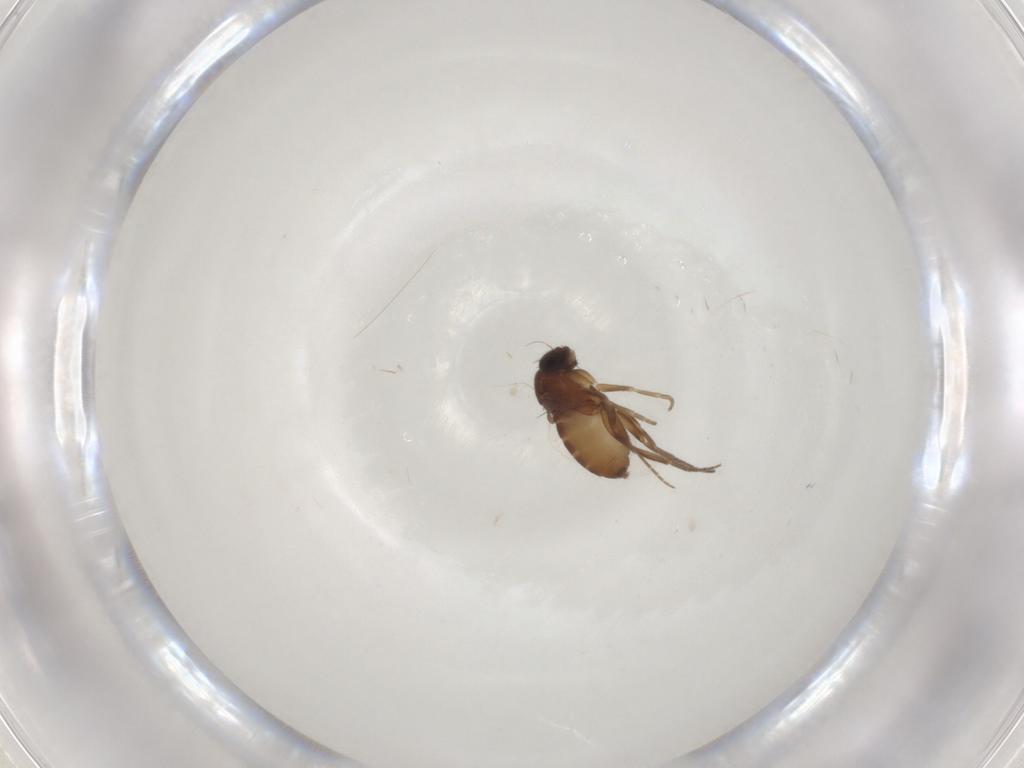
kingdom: Animalia
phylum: Arthropoda
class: Insecta
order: Diptera
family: Phoridae
